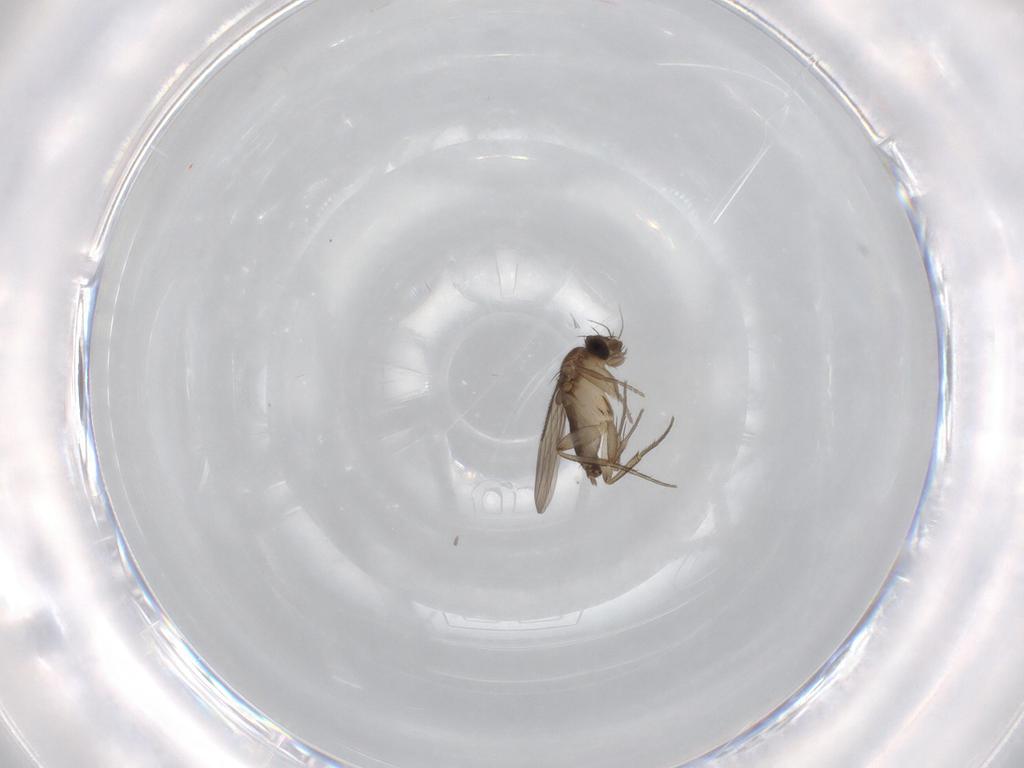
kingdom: Animalia
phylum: Arthropoda
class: Insecta
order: Diptera
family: Phoridae
